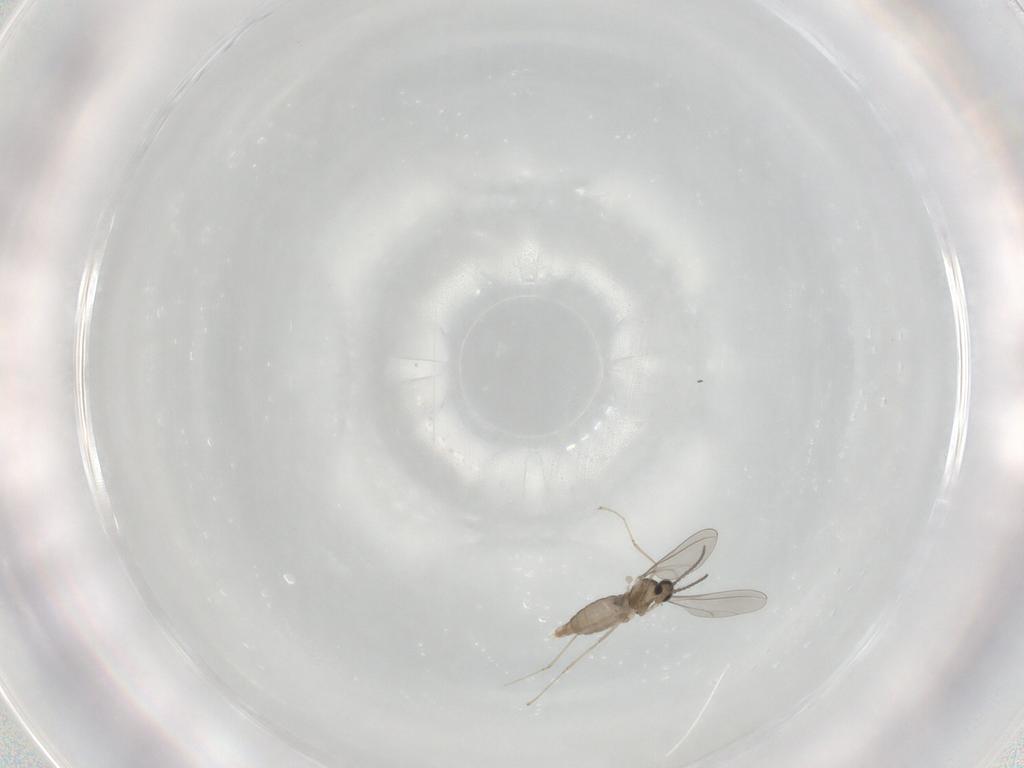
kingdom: Animalia
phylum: Arthropoda
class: Insecta
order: Diptera
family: Cecidomyiidae
